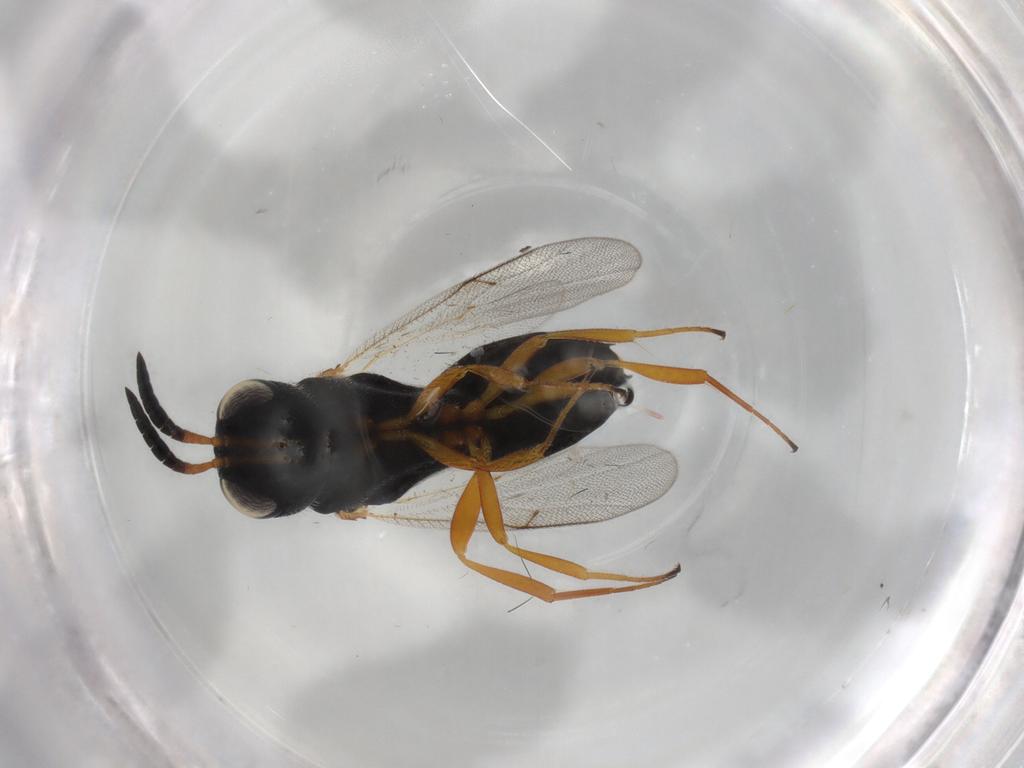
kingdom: Animalia
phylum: Arthropoda
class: Insecta
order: Hymenoptera
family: Scelionidae
